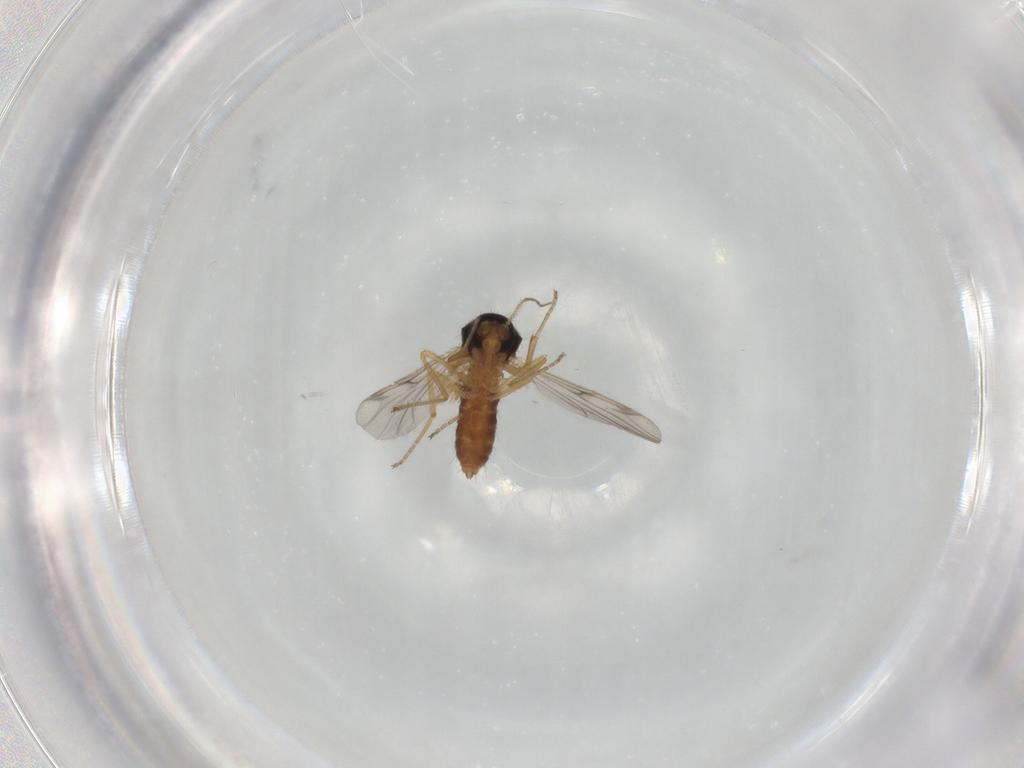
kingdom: Animalia
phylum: Arthropoda
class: Insecta
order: Diptera
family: Ceratopogonidae
